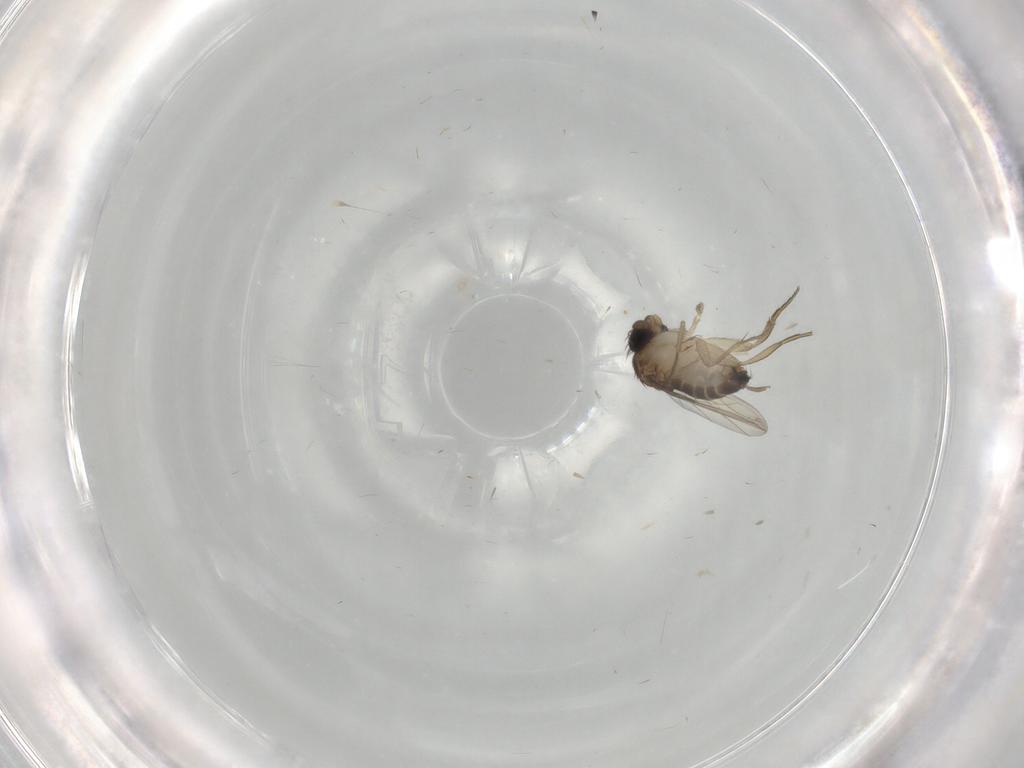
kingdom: Animalia
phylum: Arthropoda
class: Insecta
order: Diptera
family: Phoridae
